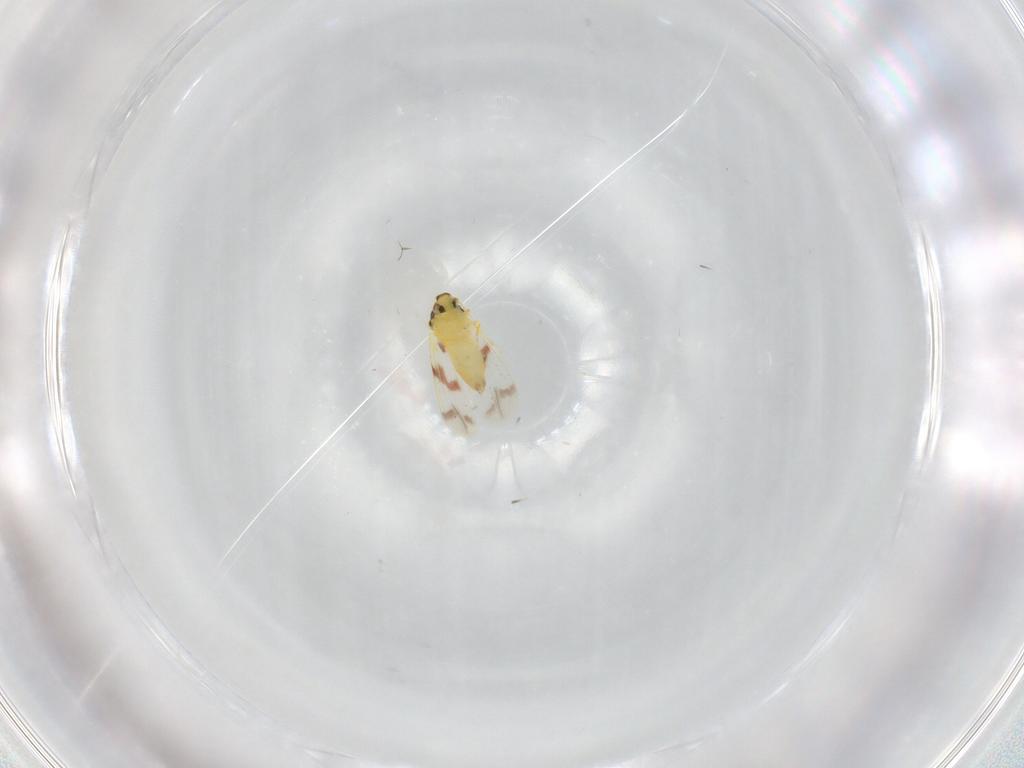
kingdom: Animalia
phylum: Arthropoda
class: Insecta
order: Hemiptera
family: Aleyrodidae
